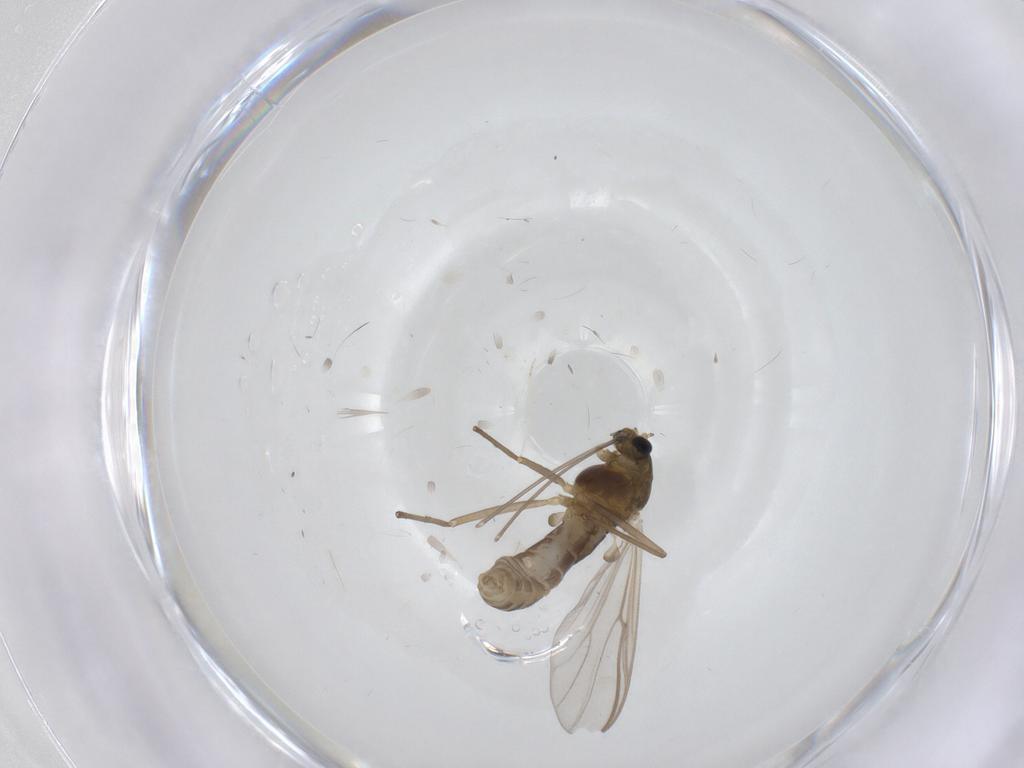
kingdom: Animalia
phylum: Arthropoda
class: Insecta
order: Diptera
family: Chironomidae
